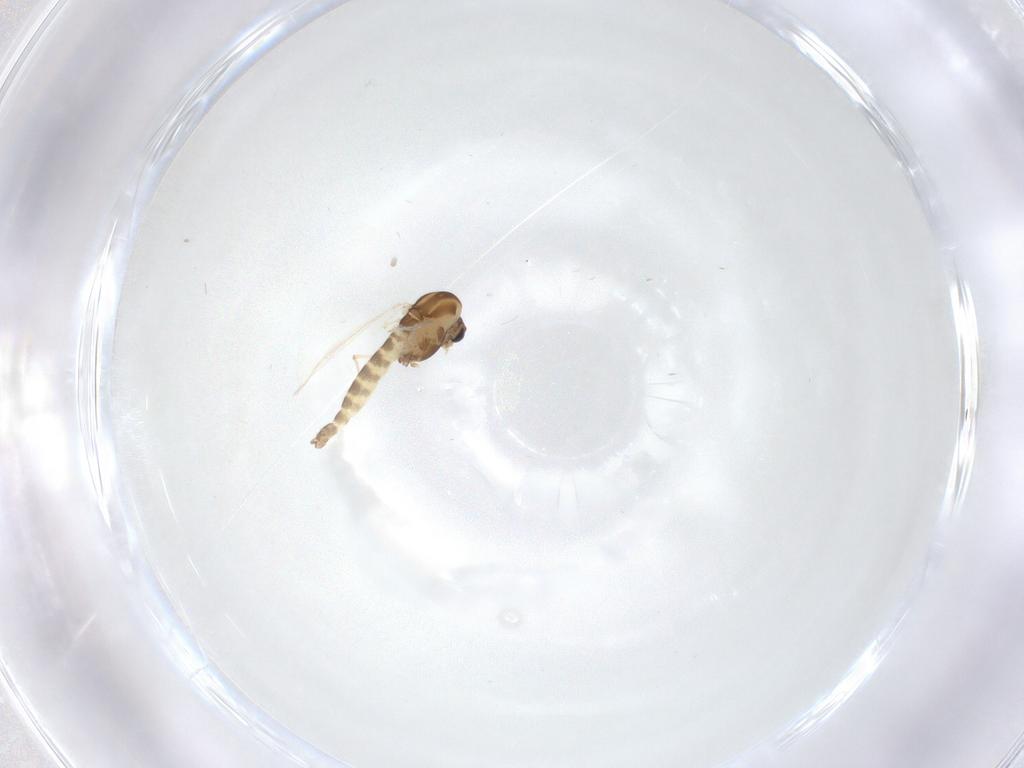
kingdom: Animalia
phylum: Arthropoda
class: Insecta
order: Diptera
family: Chironomidae
